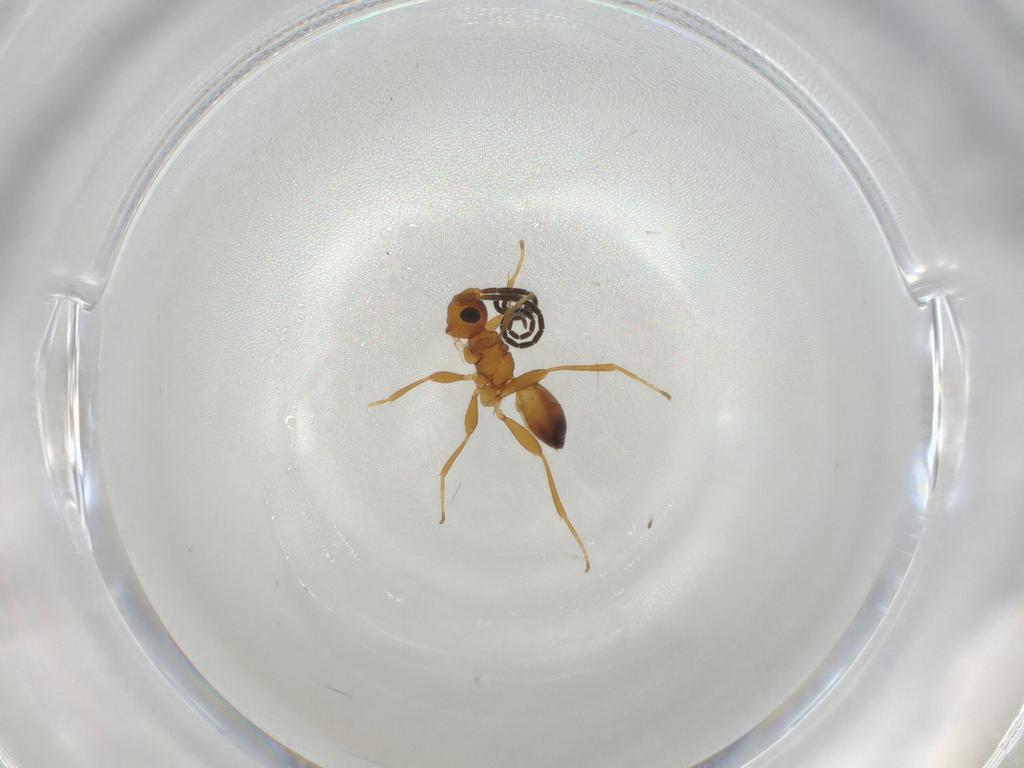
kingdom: Animalia
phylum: Arthropoda
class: Insecta
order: Hymenoptera
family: Braconidae
